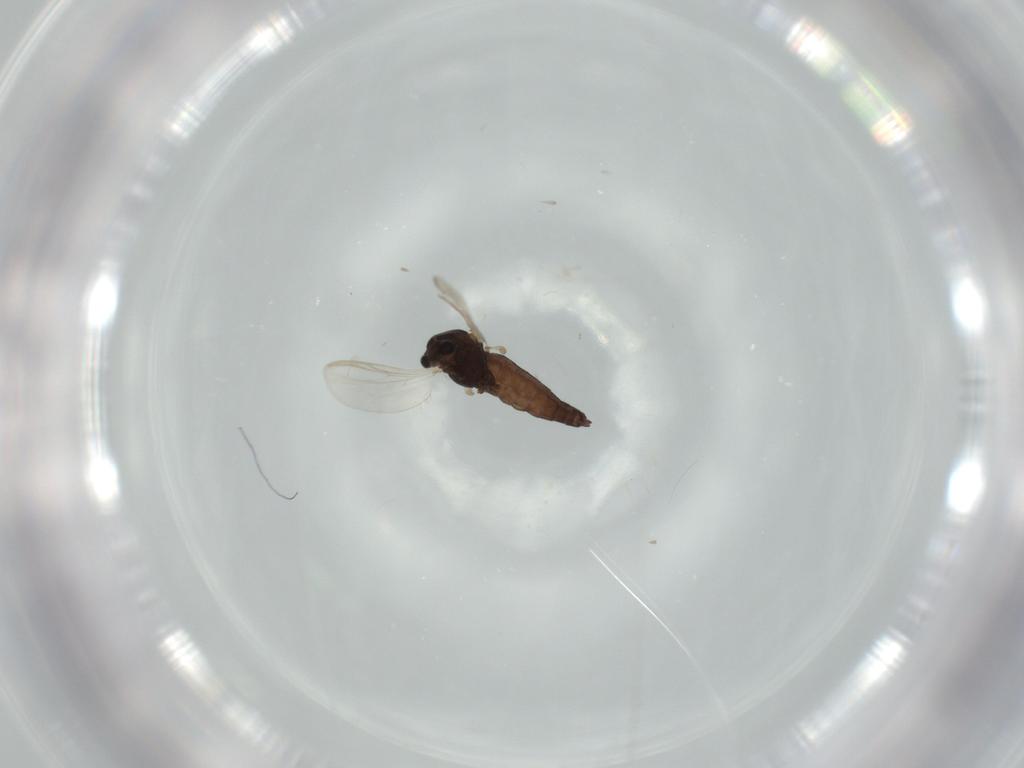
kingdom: Animalia
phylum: Arthropoda
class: Insecta
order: Diptera
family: Chironomidae
